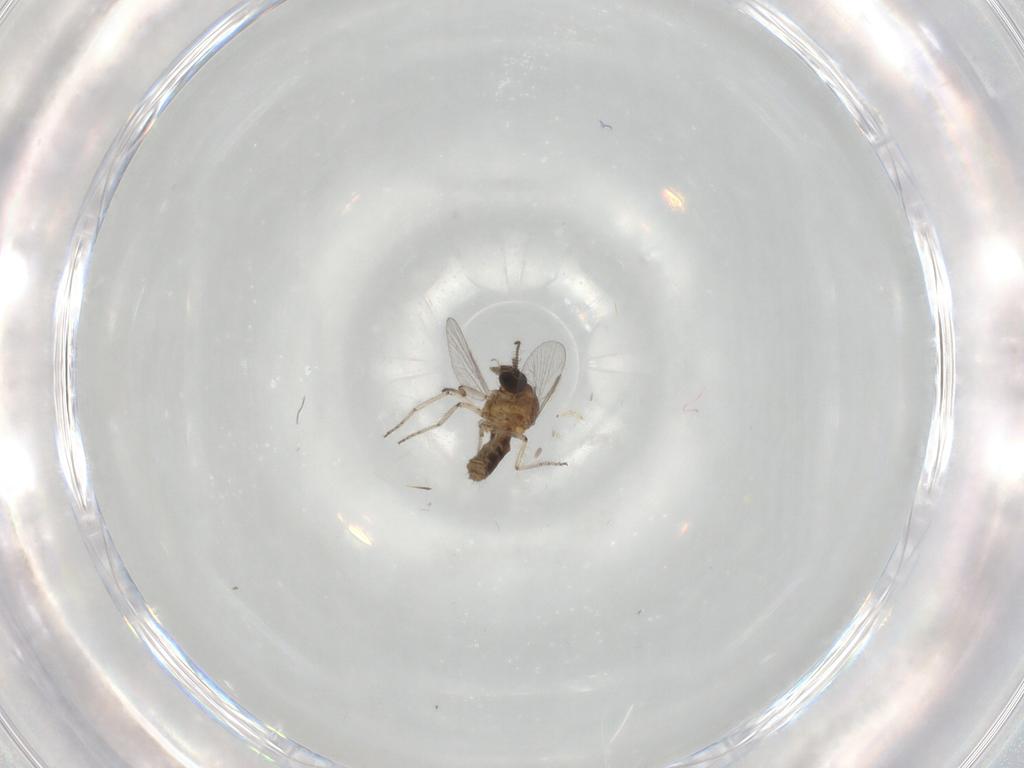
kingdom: Animalia
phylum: Arthropoda
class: Insecta
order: Diptera
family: Ceratopogonidae
